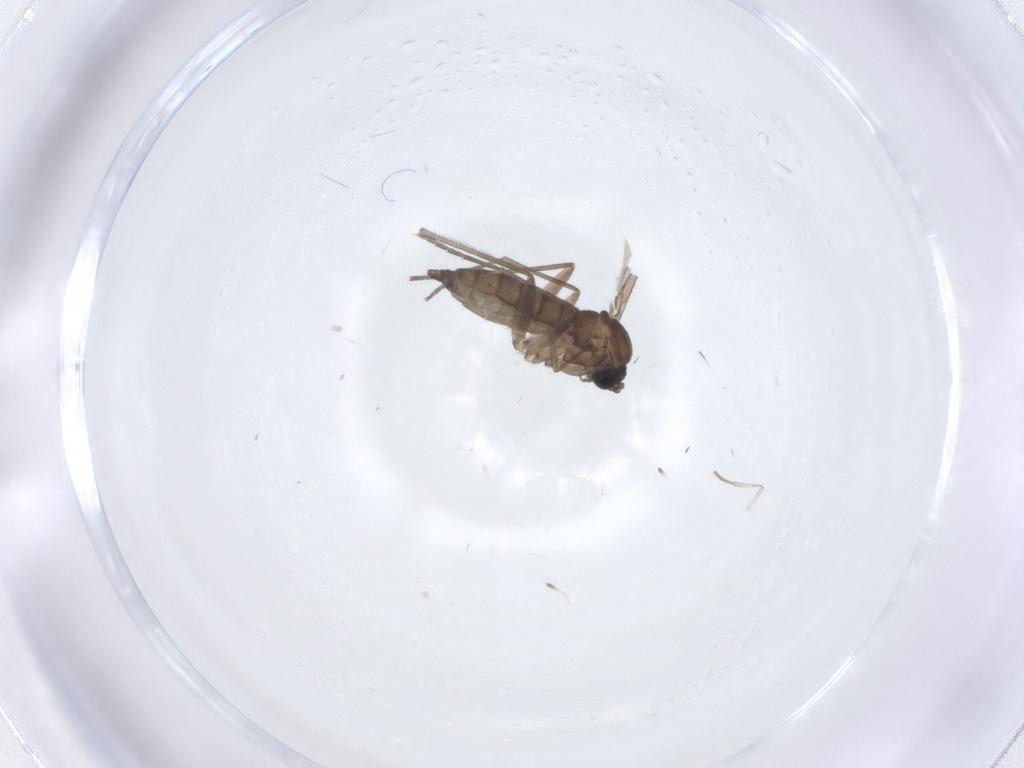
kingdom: Animalia
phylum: Arthropoda
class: Insecta
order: Diptera
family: Sciaridae
